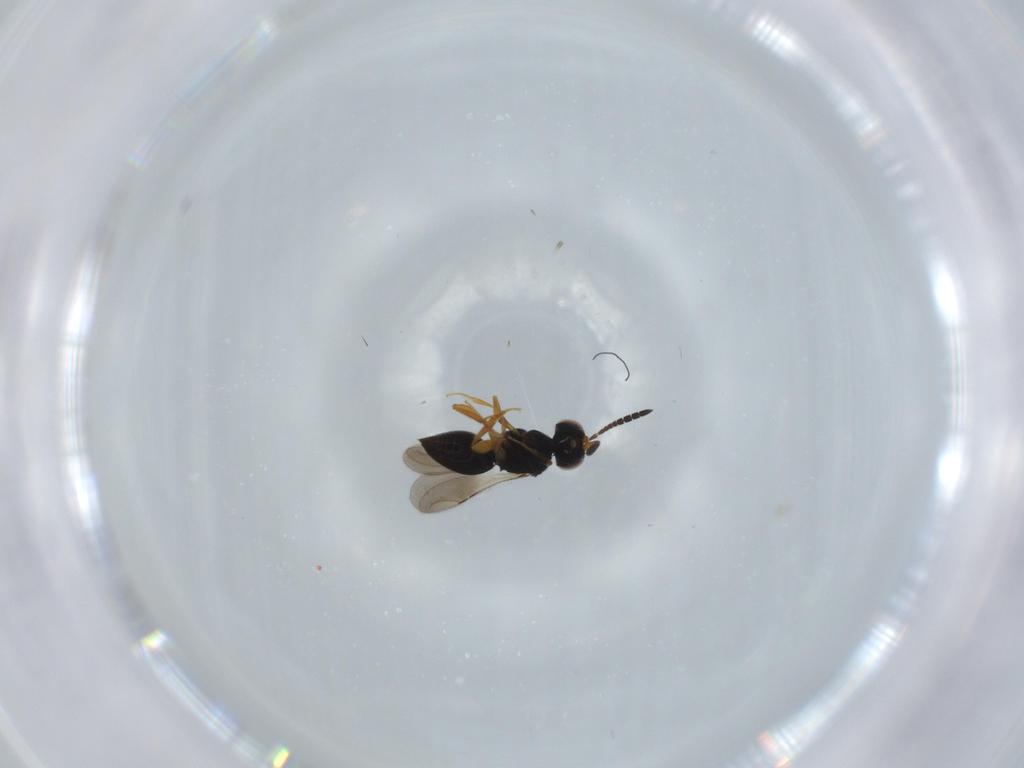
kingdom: Animalia
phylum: Arthropoda
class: Insecta
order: Hymenoptera
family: Ceraphronidae
